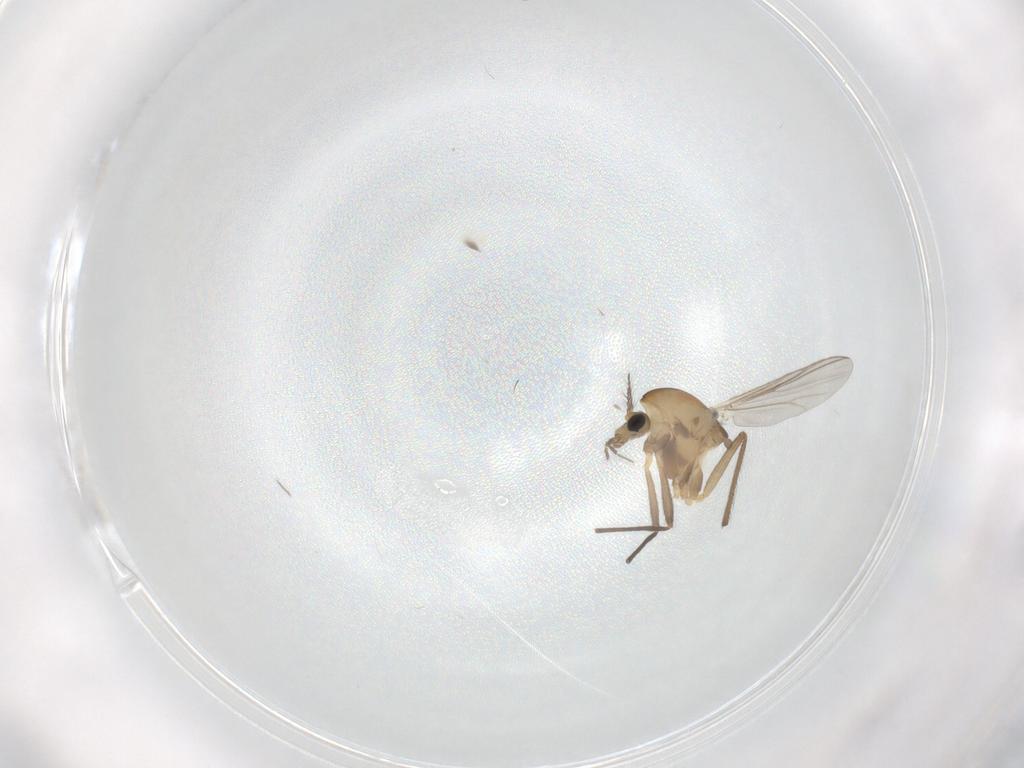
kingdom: Animalia
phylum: Arthropoda
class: Insecta
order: Diptera
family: Chironomidae
